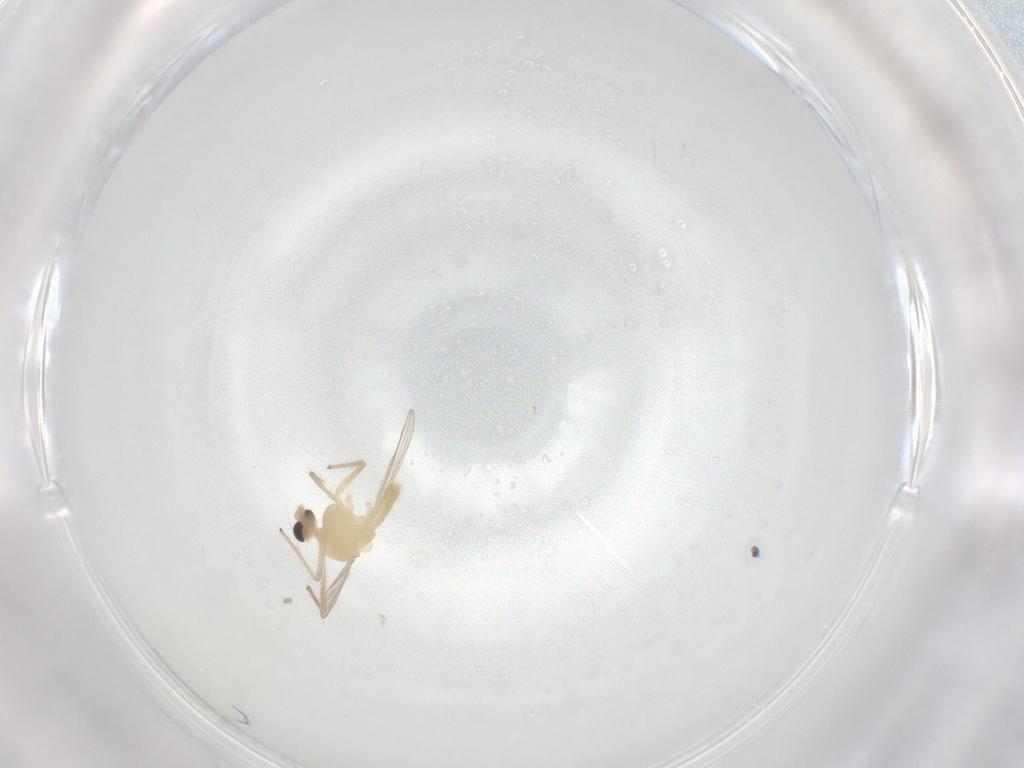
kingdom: Animalia
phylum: Arthropoda
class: Insecta
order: Diptera
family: Chironomidae
